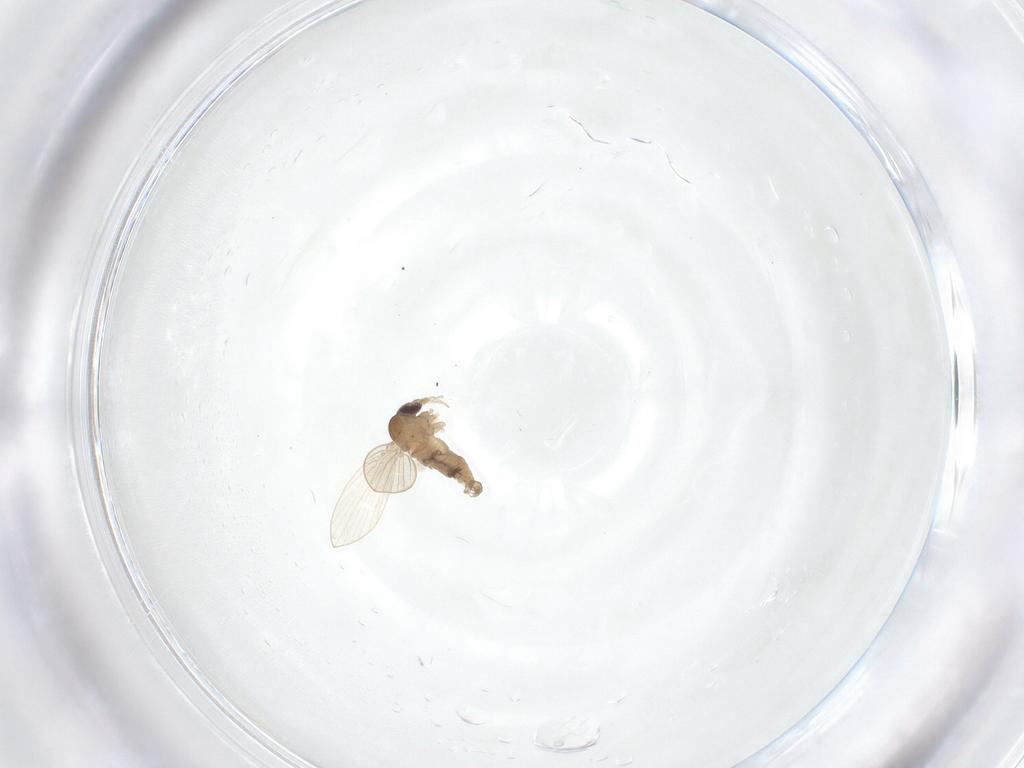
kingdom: Animalia
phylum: Arthropoda
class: Insecta
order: Diptera
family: Psychodidae
